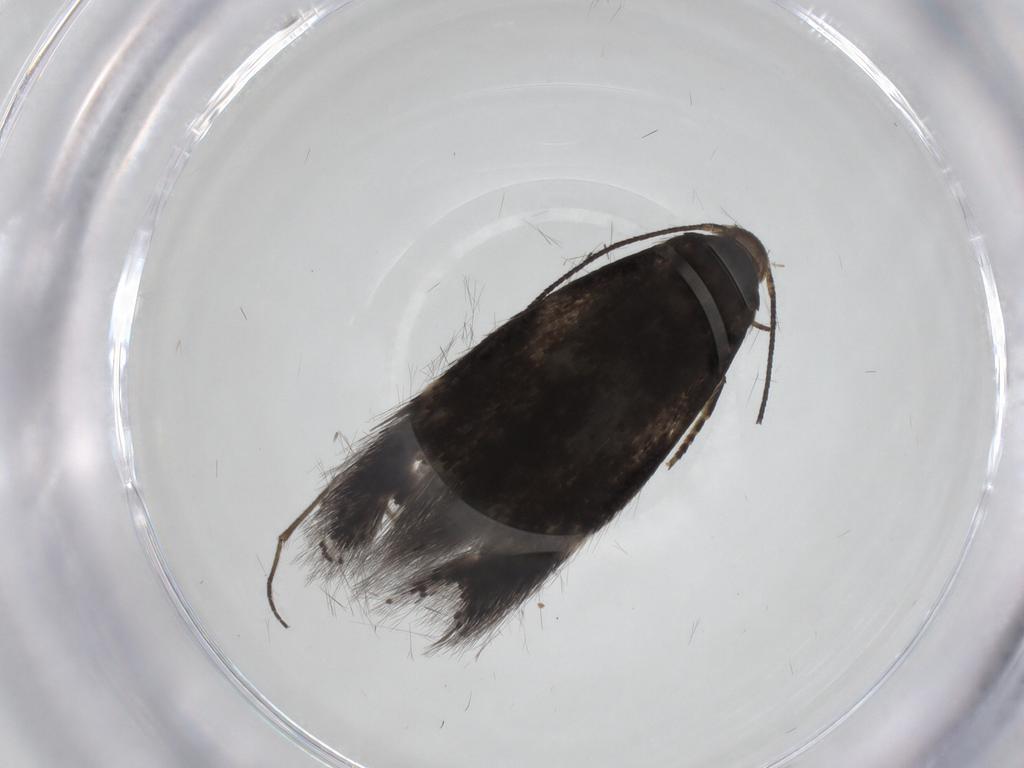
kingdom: Animalia
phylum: Arthropoda
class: Insecta
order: Lepidoptera
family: Elachistidae
